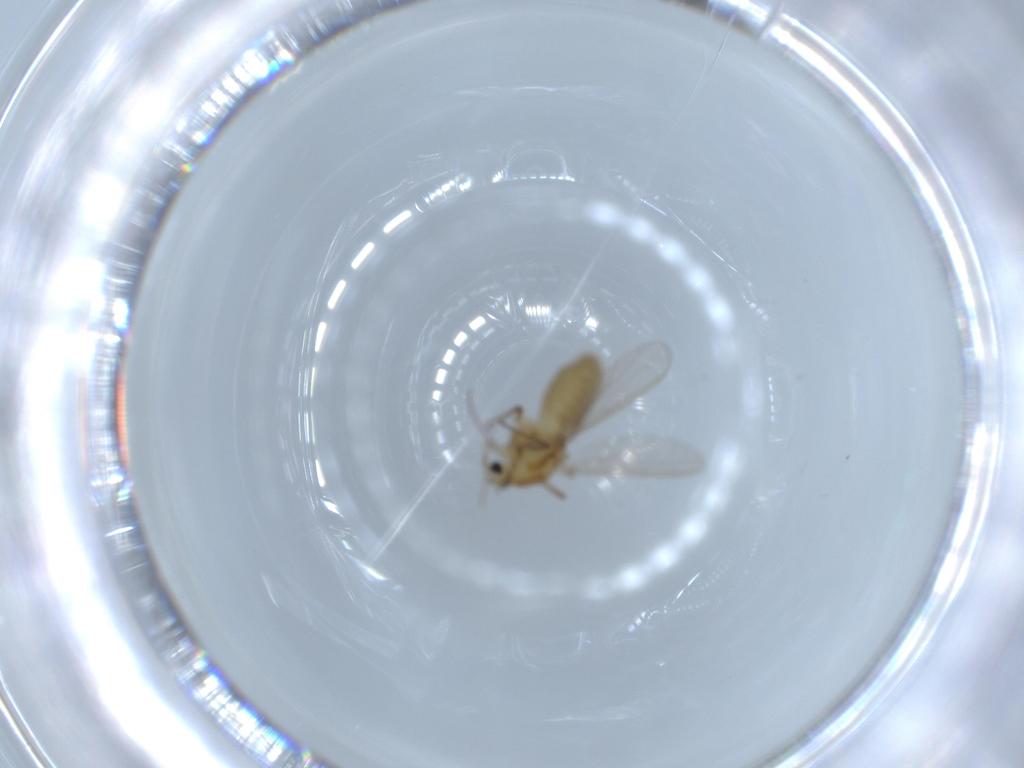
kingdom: Animalia
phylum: Arthropoda
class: Insecta
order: Diptera
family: Chironomidae
